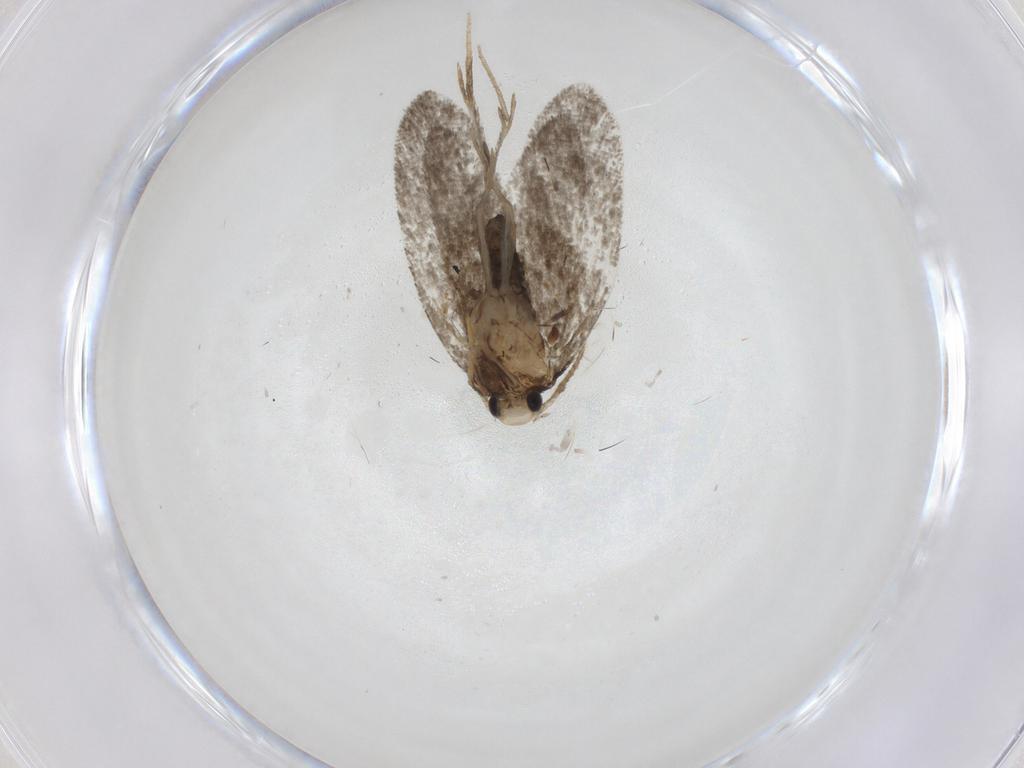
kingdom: Animalia
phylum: Arthropoda
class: Insecta
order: Lepidoptera
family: Psychidae
